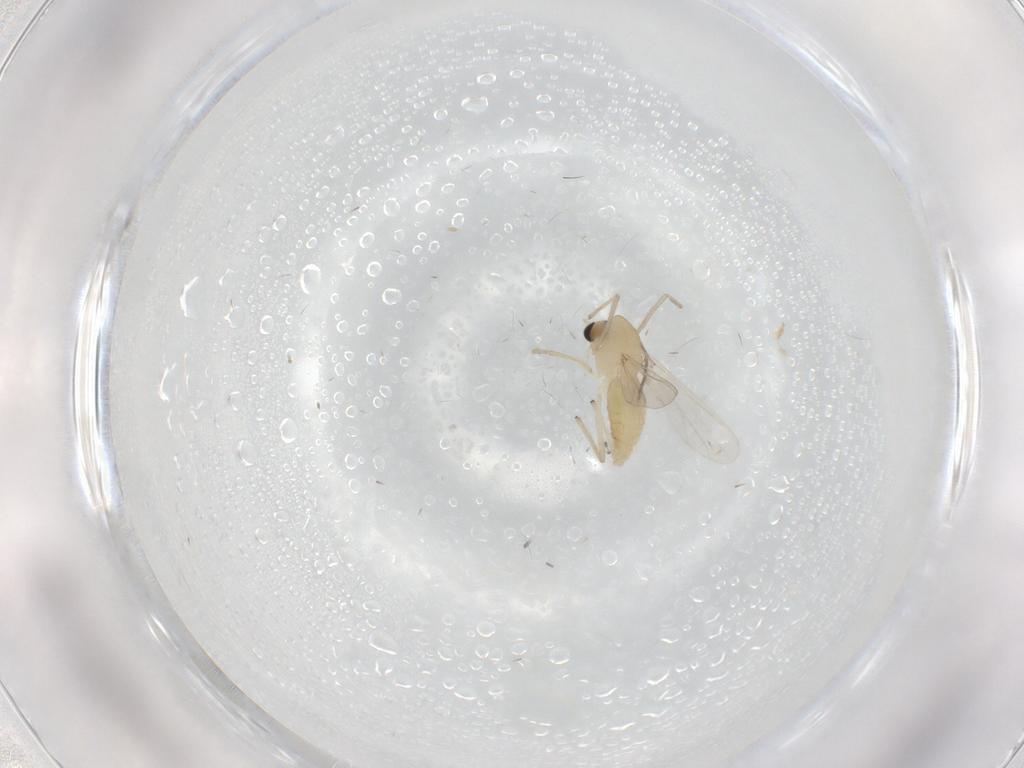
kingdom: Animalia
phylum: Arthropoda
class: Insecta
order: Diptera
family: Chironomidae
